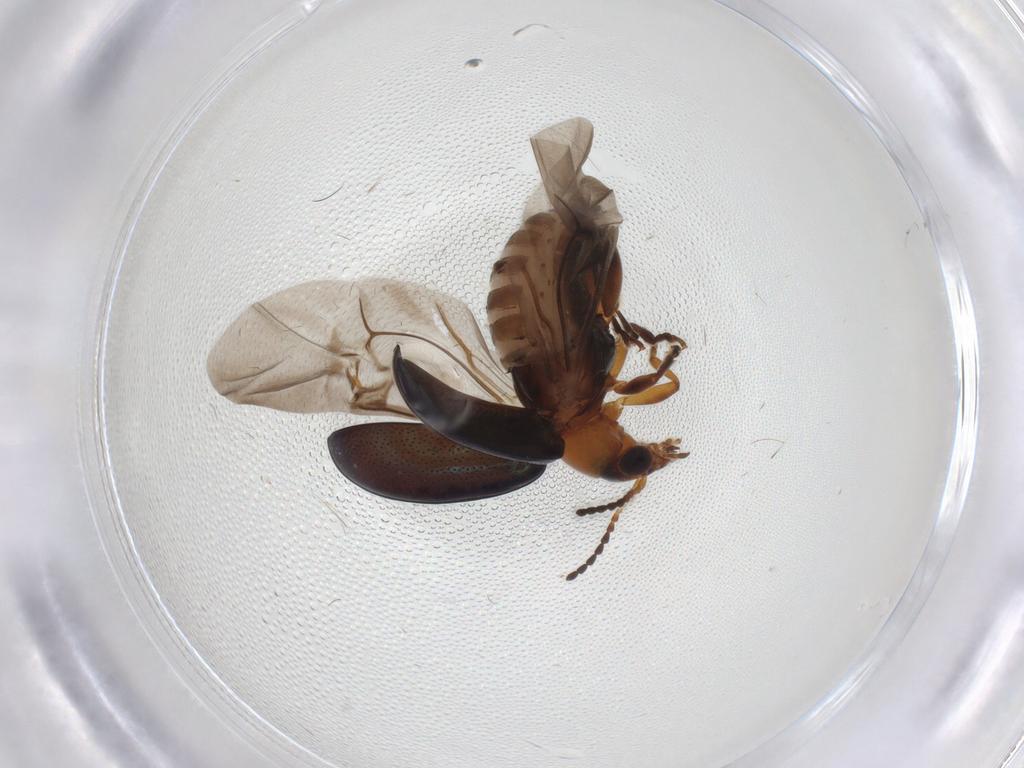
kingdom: Animalia
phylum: Arthropoda
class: Insecta
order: Coleoptera
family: Chrysomelidae
